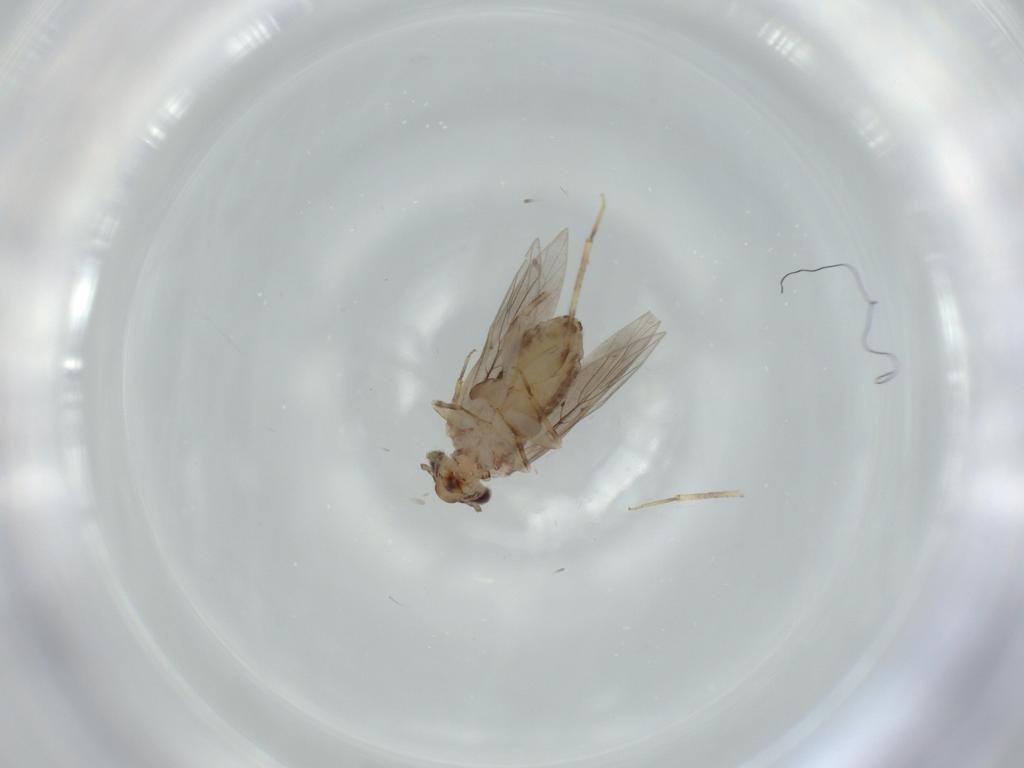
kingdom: Animalia
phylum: Arthropoda
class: Insecta
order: Psocodea
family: Lepidopsocidae
